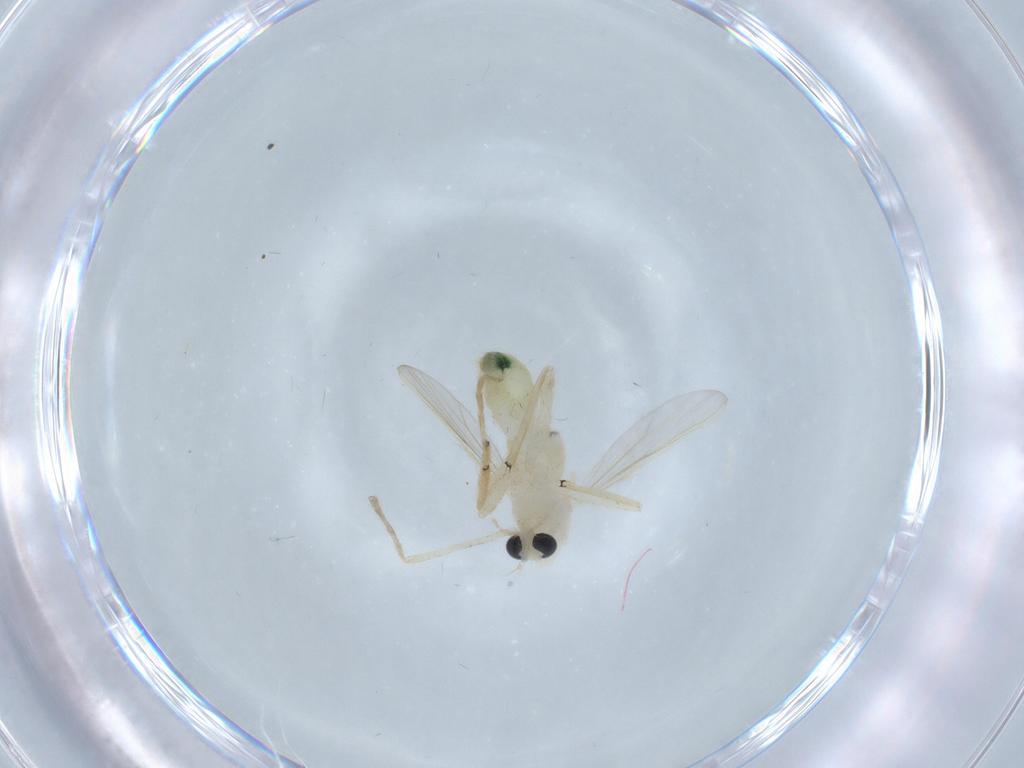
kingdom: Animalia
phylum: Arthropoda
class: Insecta
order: Diptera
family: Chironomidae
